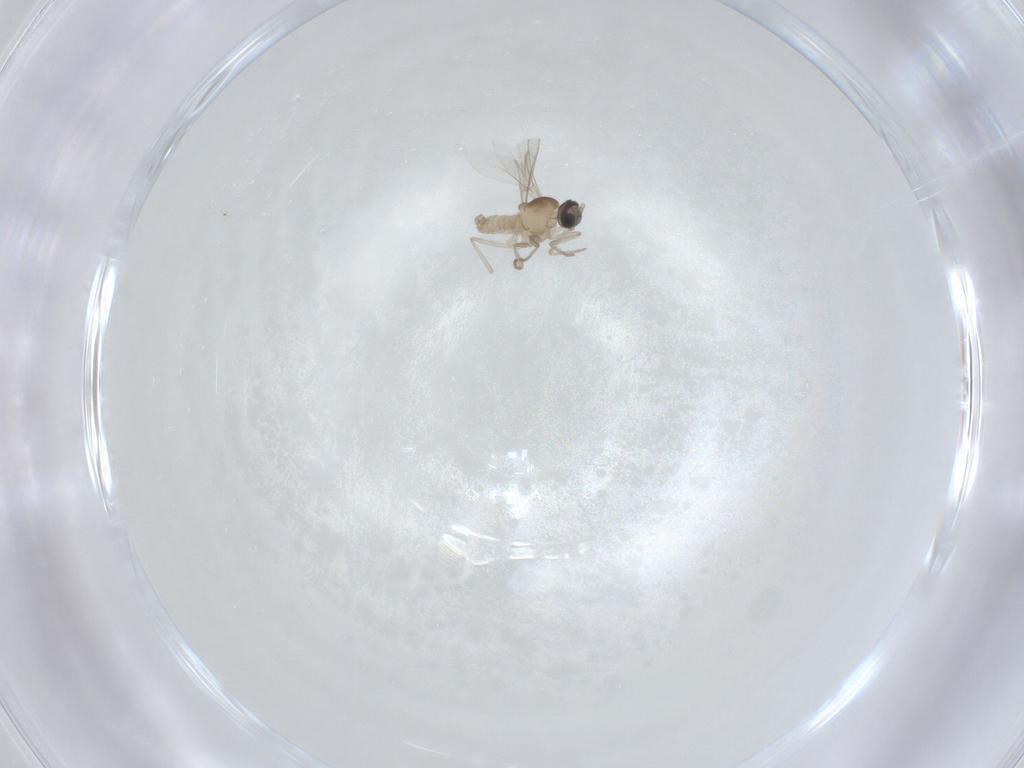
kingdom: Animalia
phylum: Arthropoda
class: Insecta
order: Diptera
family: Cecidomyiidae
